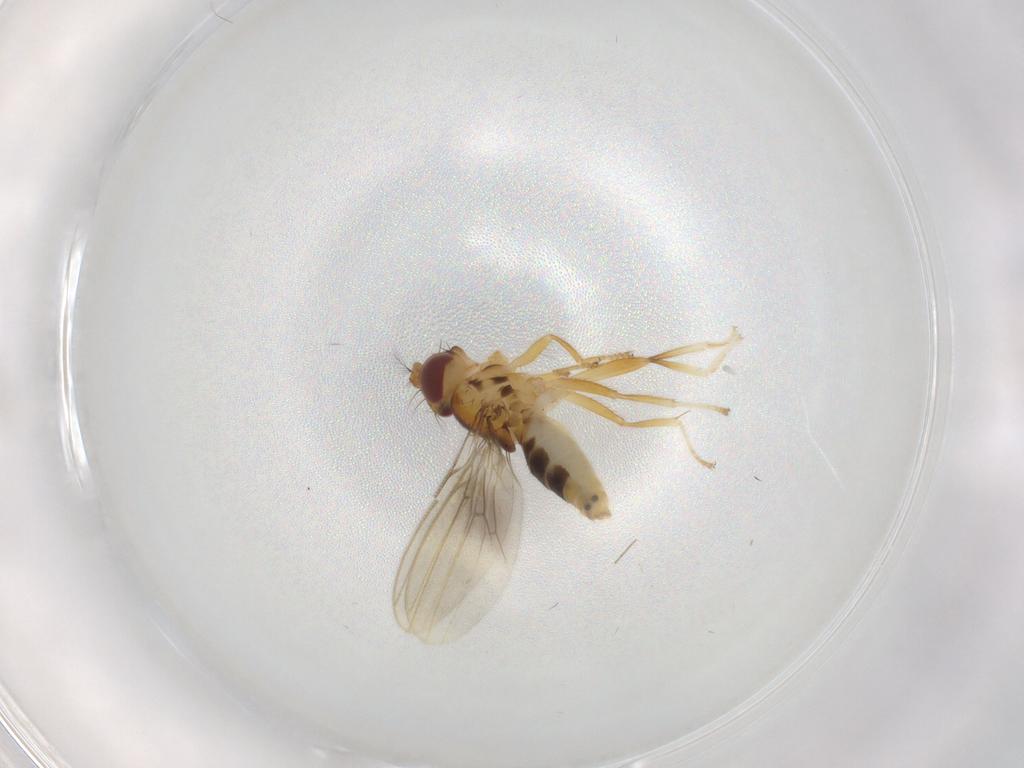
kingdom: Animalia
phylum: Arthropoda
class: Insecta
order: Diptera
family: Periscelididae
